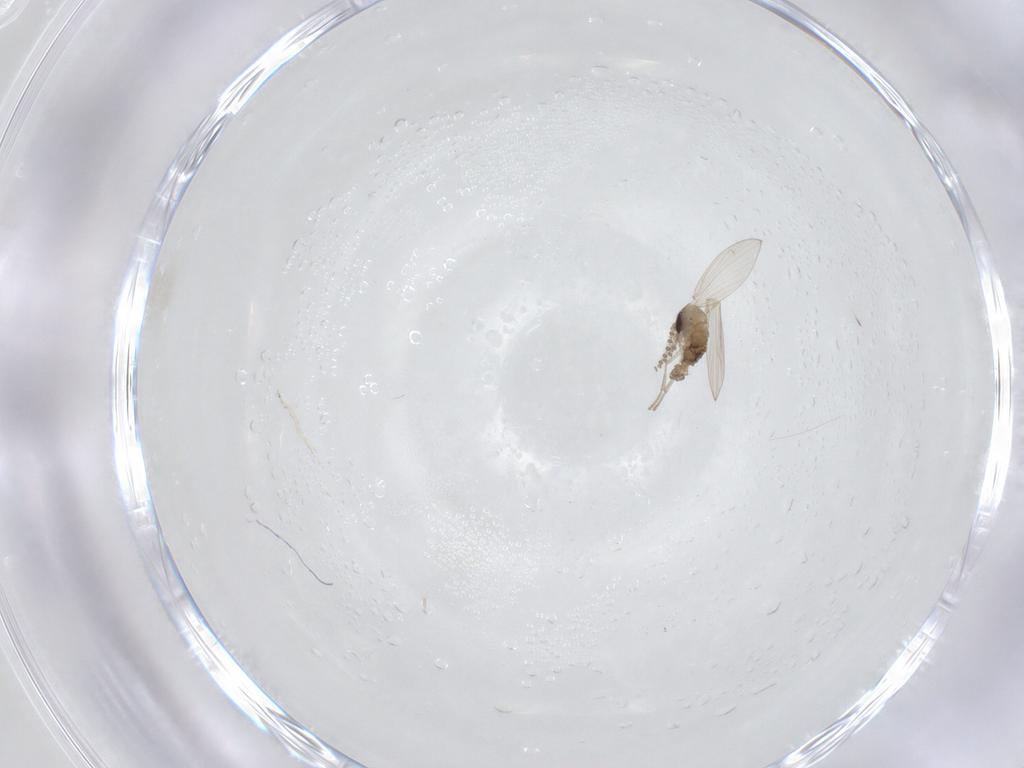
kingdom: Animalia
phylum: Arthropoda
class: Insecta
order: Diptera
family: Psychodidae
